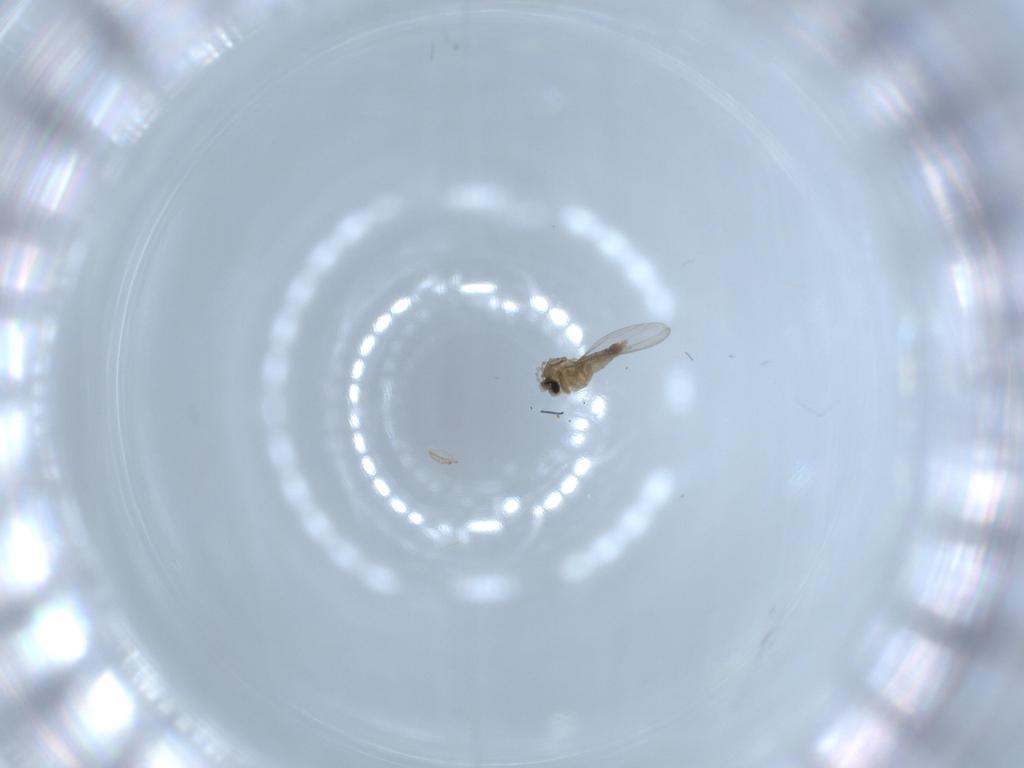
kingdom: Animalia
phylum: Arthropoda
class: Insecta
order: Diptera
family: Cecidomyiidae
